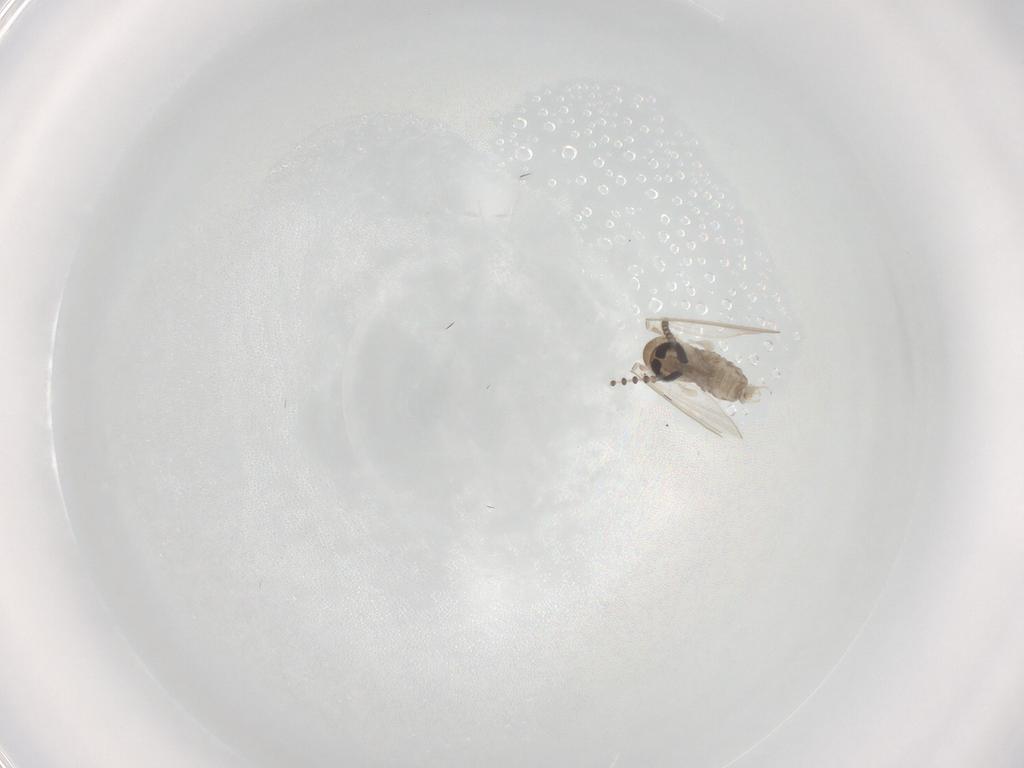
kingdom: Animalia
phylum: Arthropoda
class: Insecta
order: Diptera
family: Psychodidae
